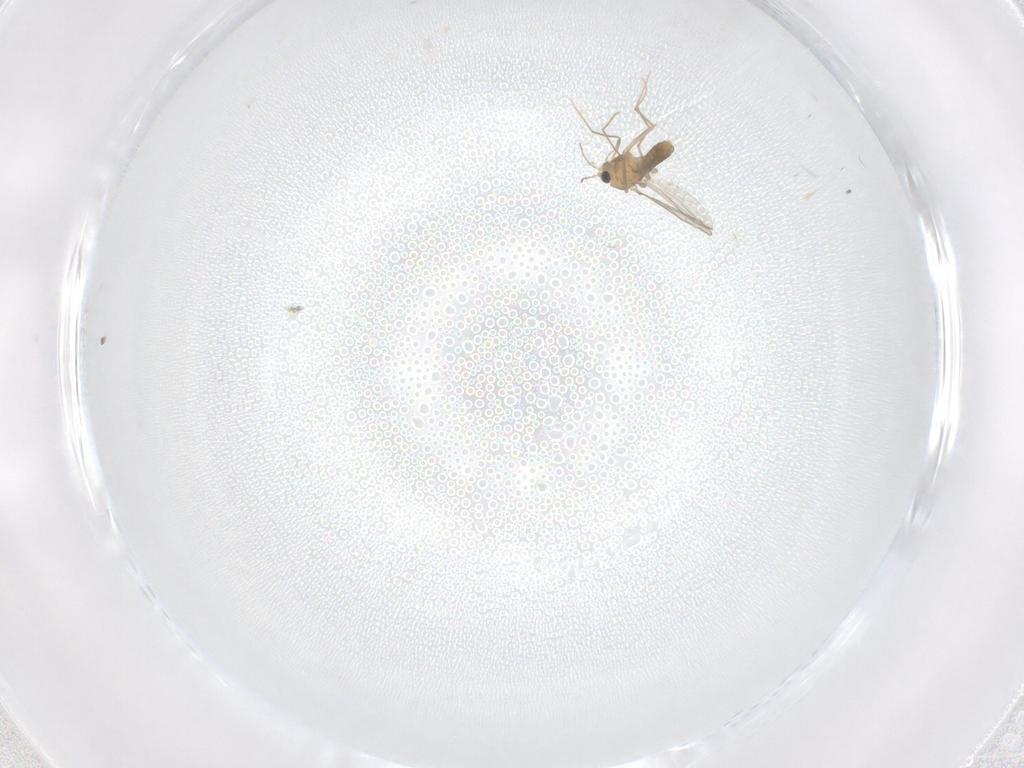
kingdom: Animalia
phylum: Arthropoda
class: Insecta
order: Diptera
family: Chironomidae
